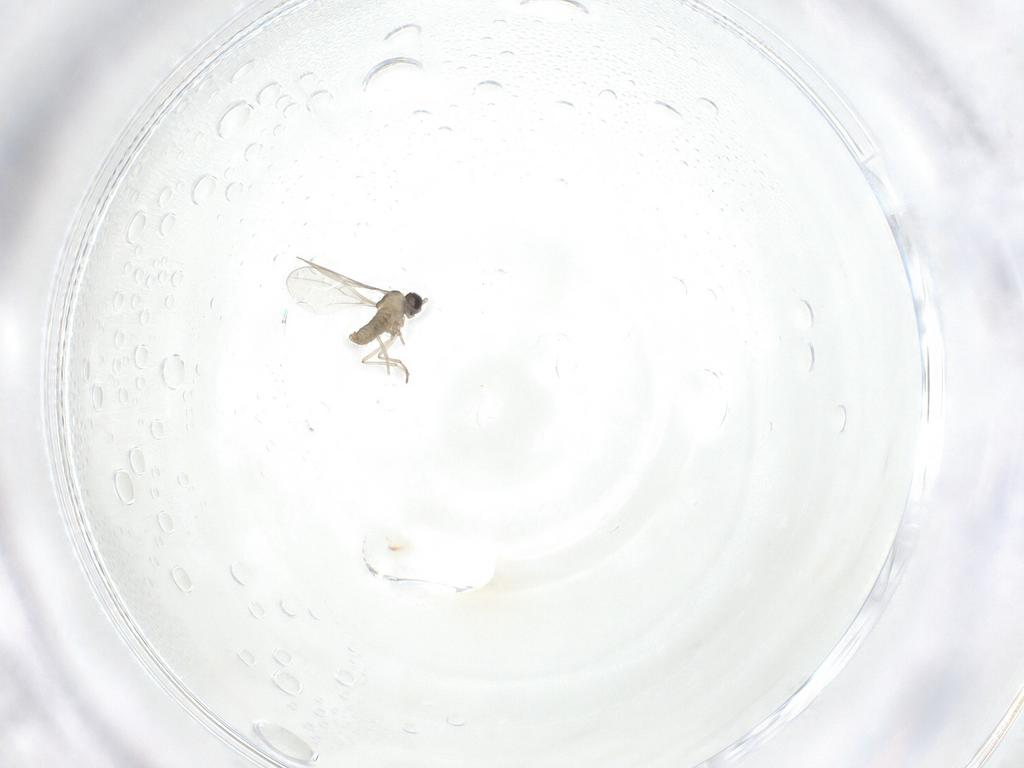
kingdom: Animalia
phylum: Arthropoda
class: Insecta
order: Diptera
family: Cecidomyiidae
